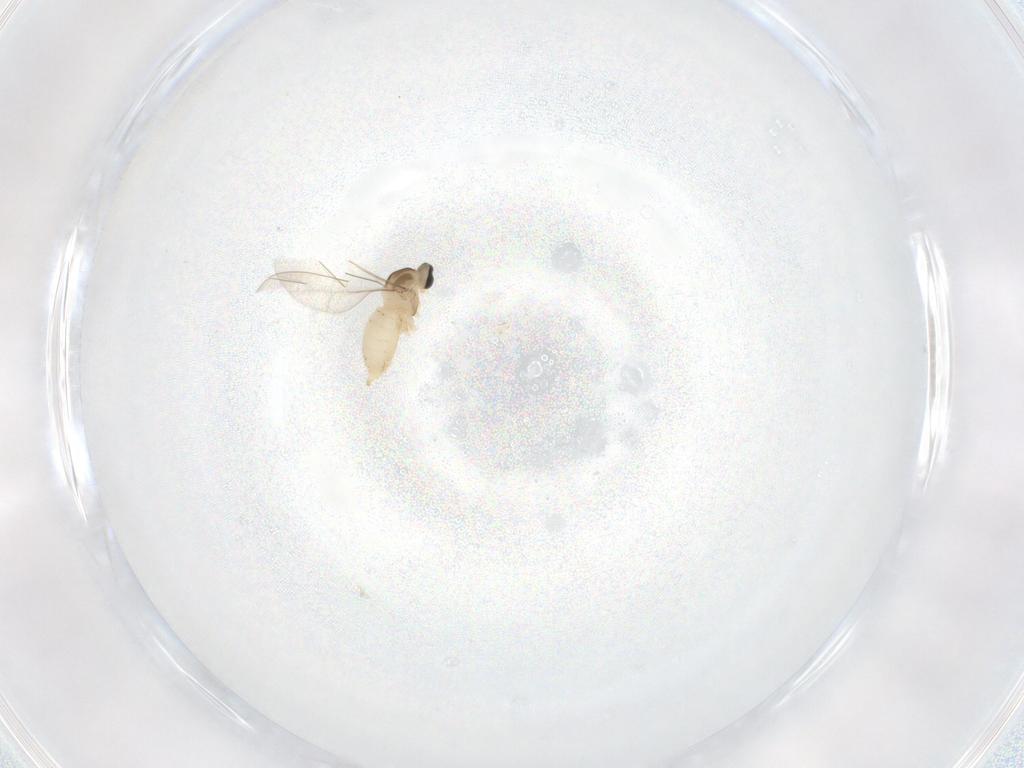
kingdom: Animalia
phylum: Arthropoda
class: Insecta
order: Diptera
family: Cecidomyiidae
